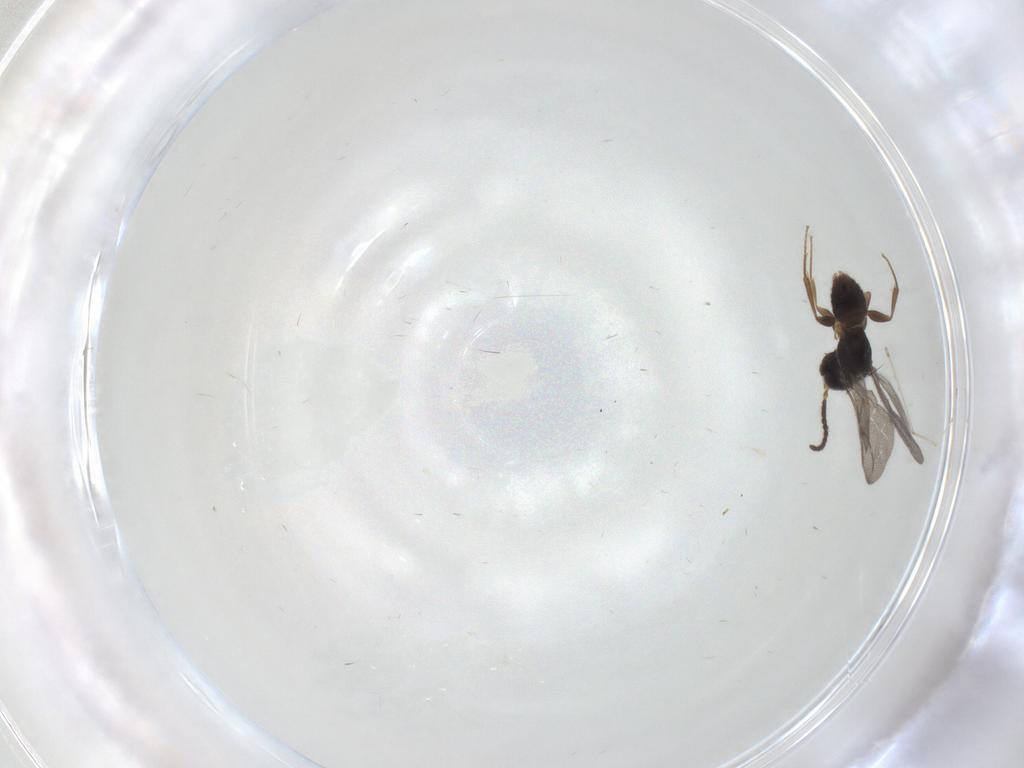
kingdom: Animalia
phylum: Arthropoda
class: Insecta
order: Hymenoptera
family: Bethylidae
